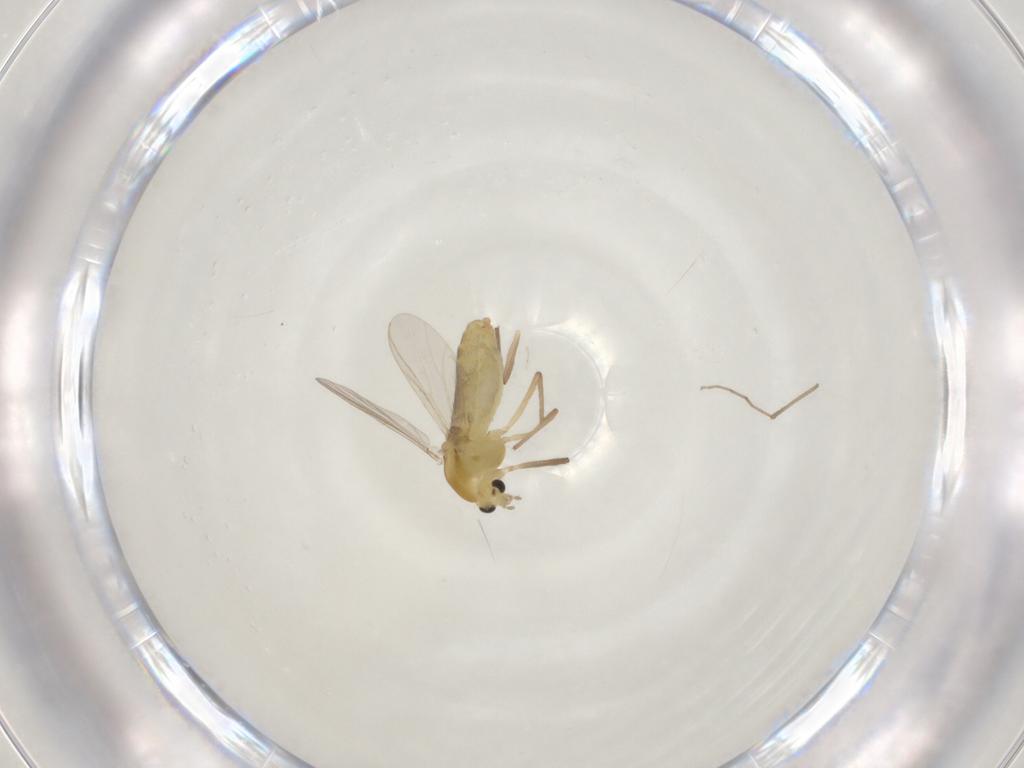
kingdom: Animalia
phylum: Arthropoda
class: Insecta
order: Diptera
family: Chironomidae
